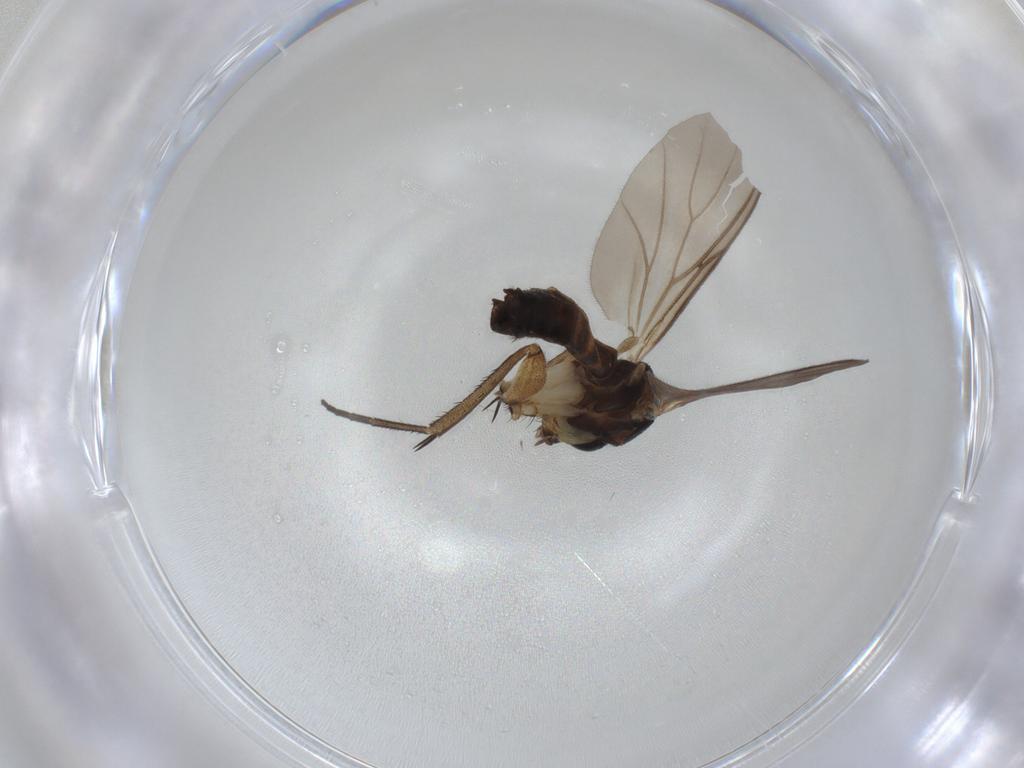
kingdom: Animalia
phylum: Arthropoda
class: Insecta
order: Diptera
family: Mycetophilidae
